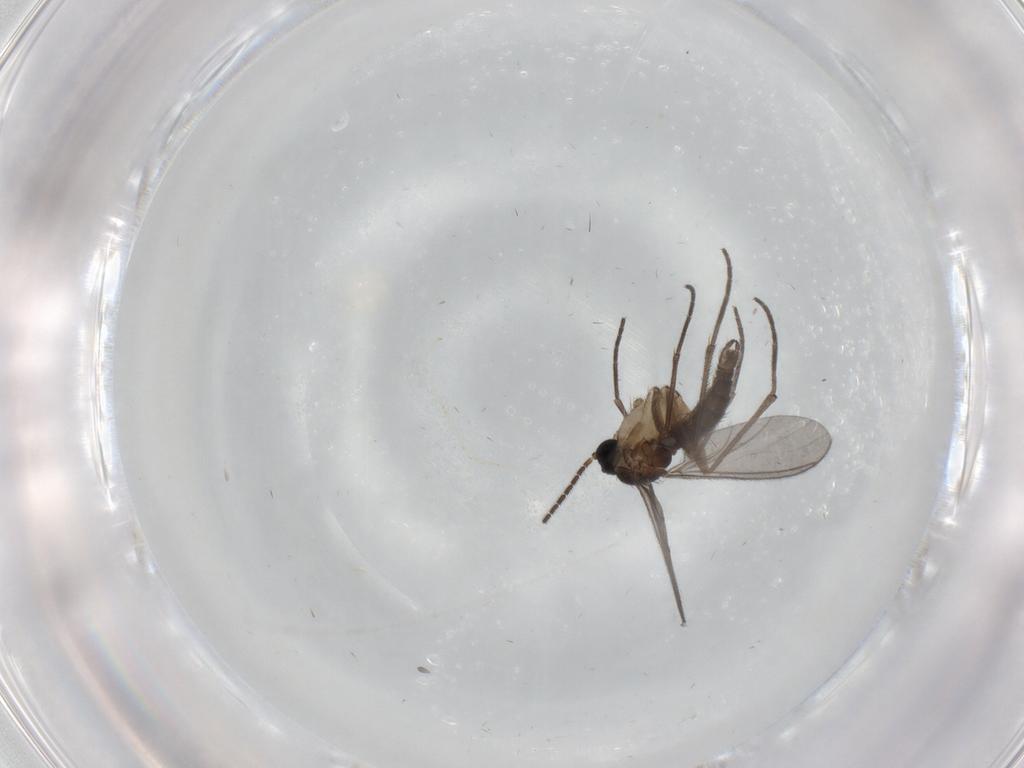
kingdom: Animalia
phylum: Arthropoda
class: Insecta
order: Diptera
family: Sciaridae
